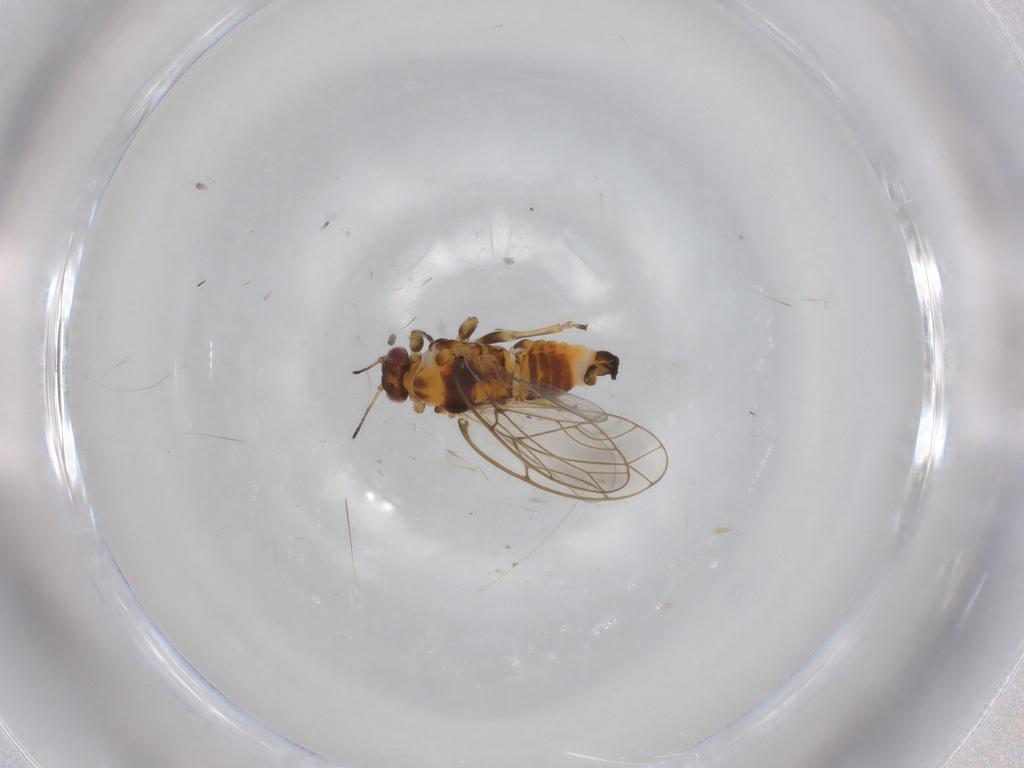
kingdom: Animalia
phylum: Arthropoda
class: Insecta
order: Hemiptera
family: Triozidae
